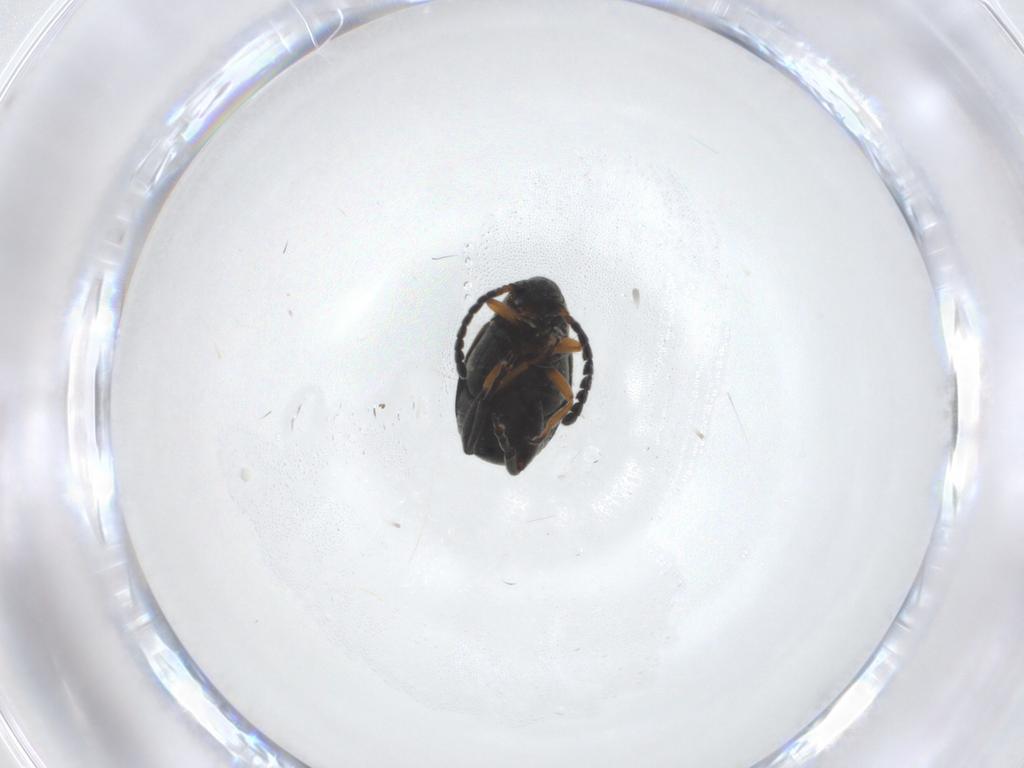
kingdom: Animalia
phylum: Arthropoda
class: Insecta
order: Coleoptera
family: Chrysomelidae
